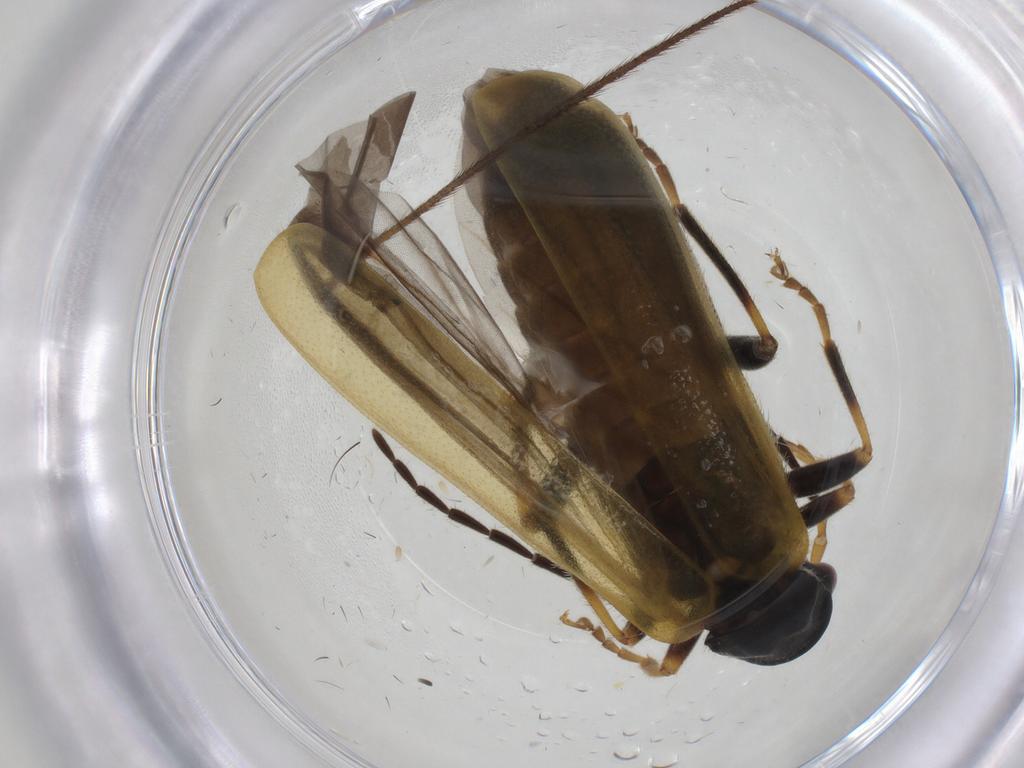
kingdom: Animalia
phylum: Arthropoda
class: Insecta
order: Coleoptera
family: Cantharidae
